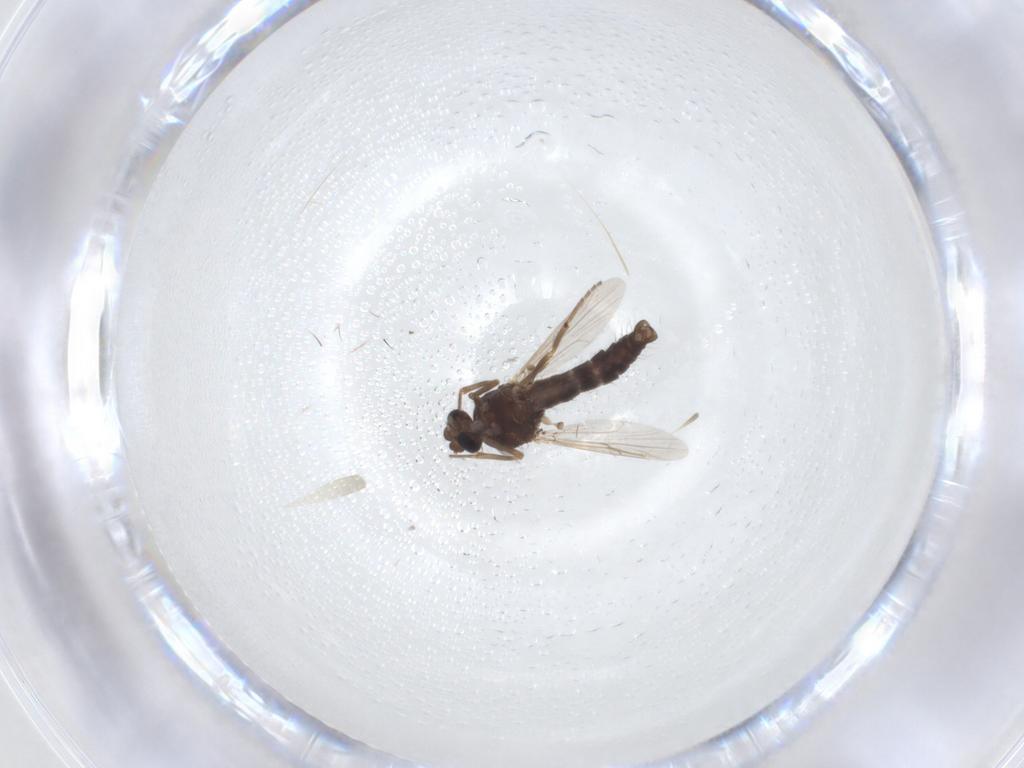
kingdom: Animalia
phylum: Arthropoda
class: Insecta
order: Diptera
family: Ceratopogonidae
